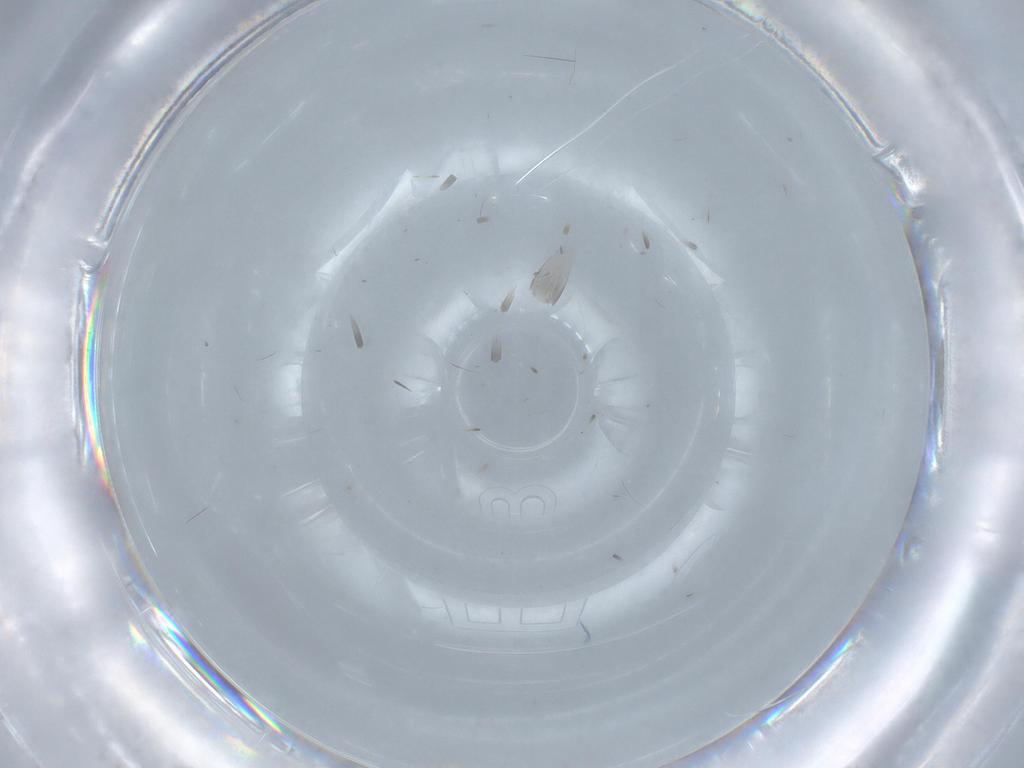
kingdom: Animalia
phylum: Arthropoda
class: Insecta
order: Diptera
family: Cecidomyiidae
